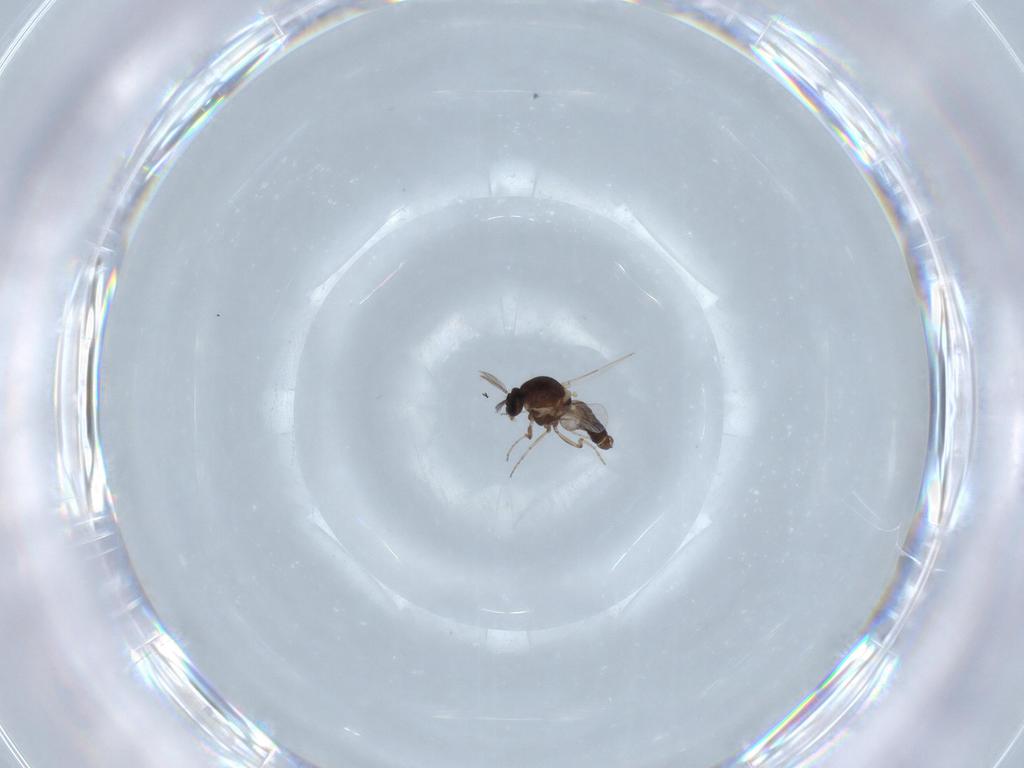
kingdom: Animalia
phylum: Arthropoda
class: Insecta
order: Diptera
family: Ceratopogonidae
